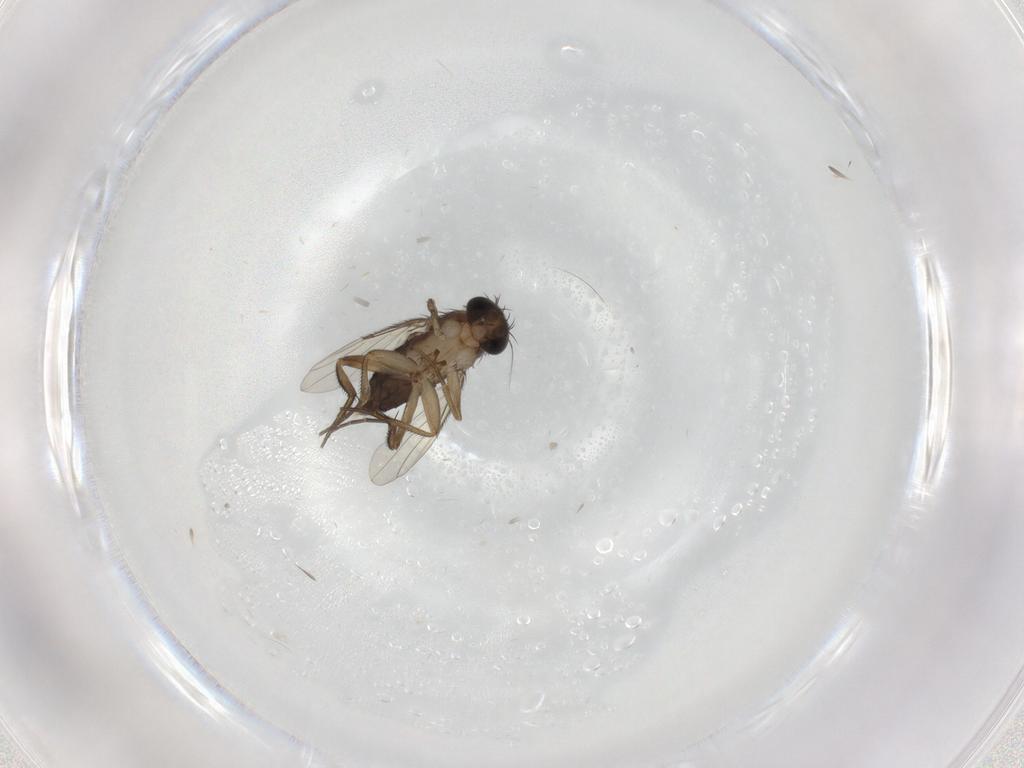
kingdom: Animalia
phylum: Arthropoda
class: Insecta
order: Diptera
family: Phoridae
